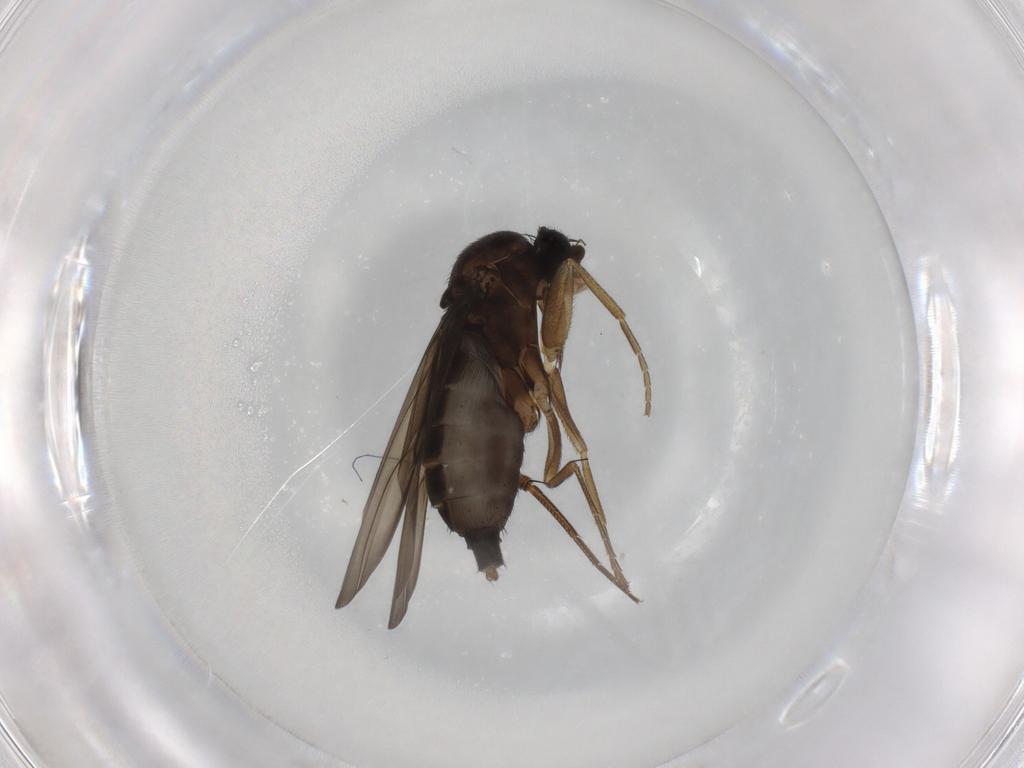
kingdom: Animalia
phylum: Arthropoda
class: Insecta
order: Diptera
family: Phoridae
